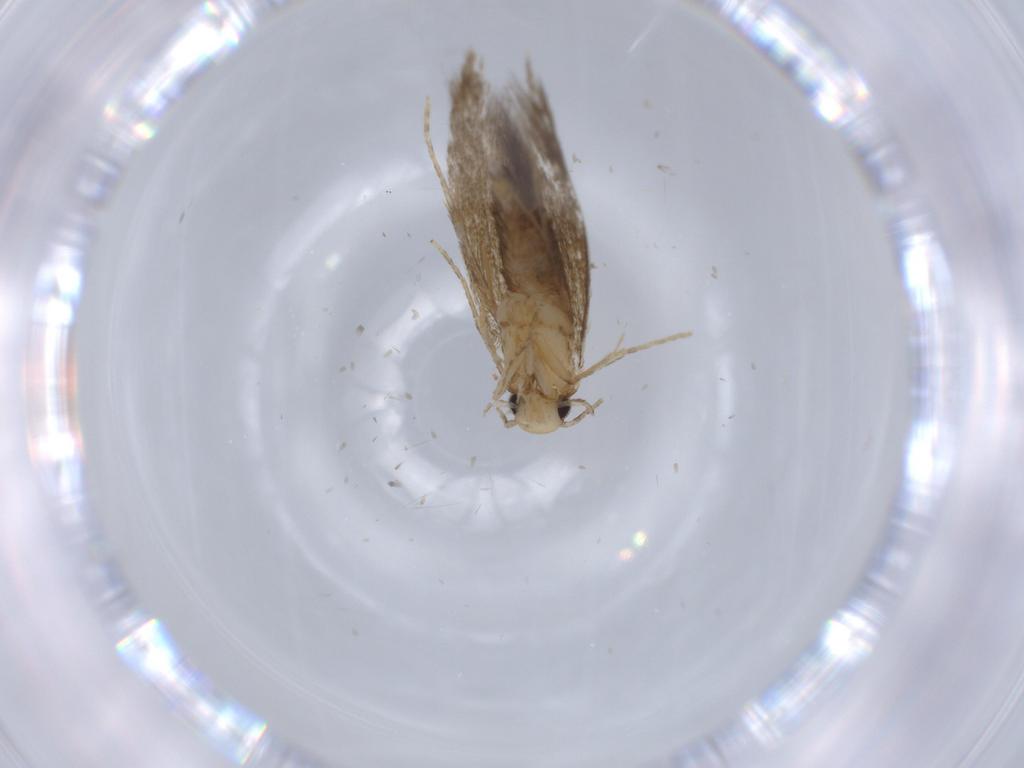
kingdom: Animalia
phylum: Arthropoda
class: Insecta
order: Lepidoptera
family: Tineidae
